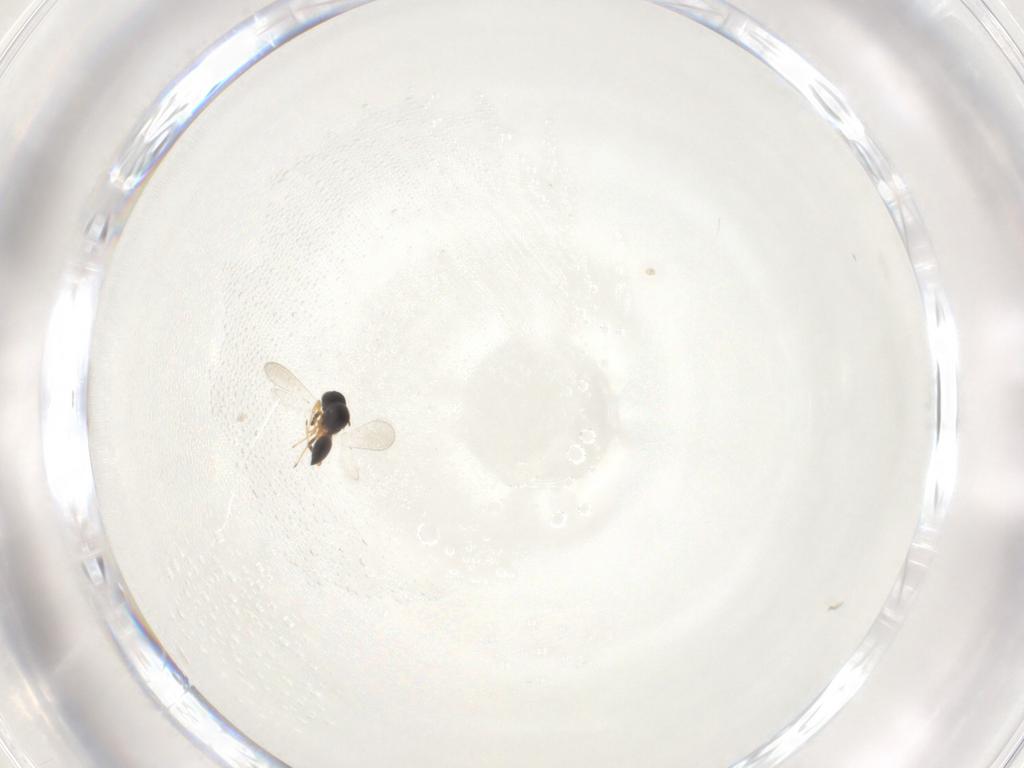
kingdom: Animalia
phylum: Arthropoda
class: Insecta
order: Hymenoptera
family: Platygastridae
